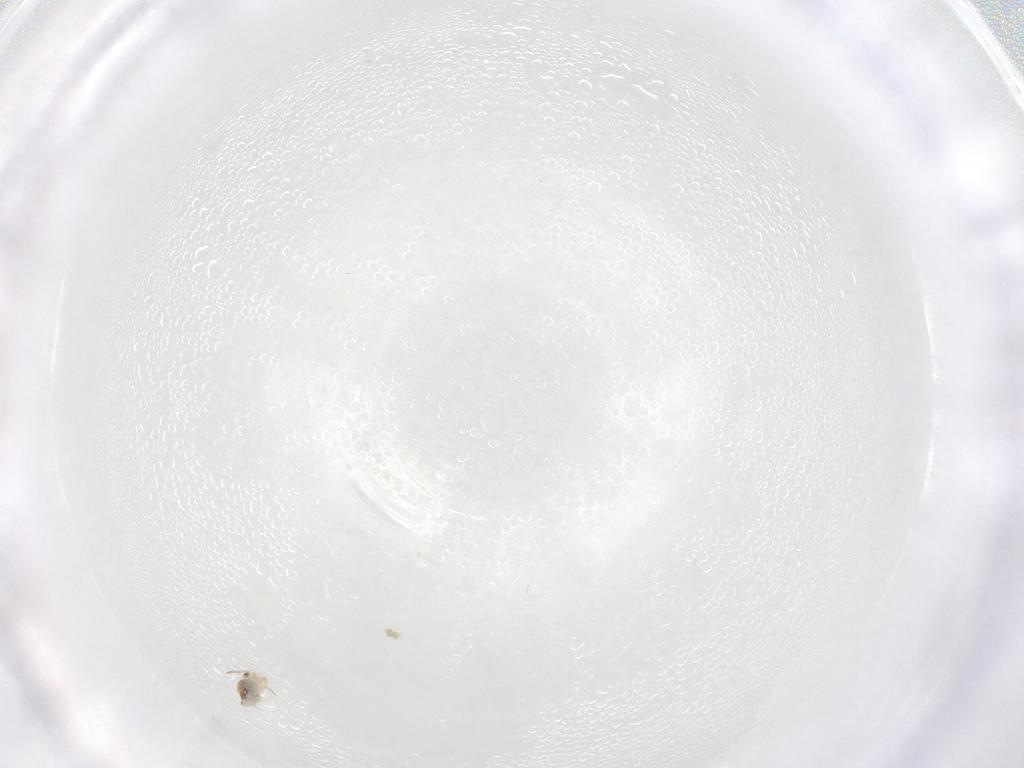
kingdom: Animalia
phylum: Arthropoda
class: Collembola
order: Symphypleona
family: Bourletiellidae
